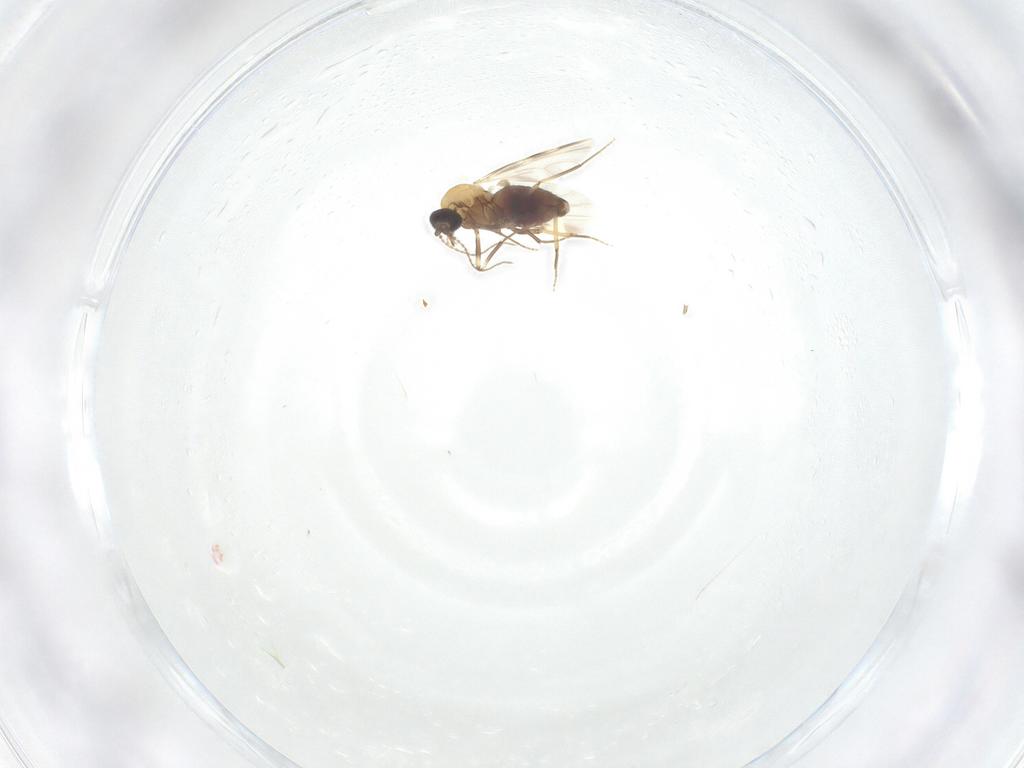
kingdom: Animalia
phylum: Arthropoda
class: Insecta
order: Diptera
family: Ceratopogonidae
